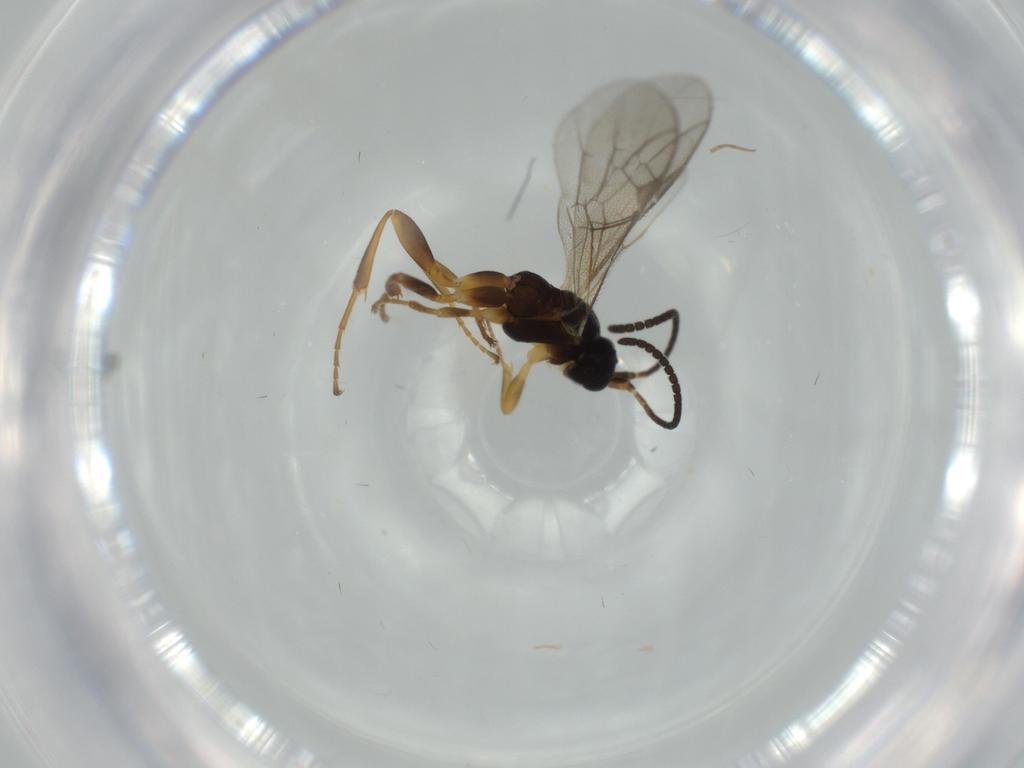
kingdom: Animalia
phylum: Arthropoda
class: Insecta
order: Hymenoptera
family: Ichneumonidae
